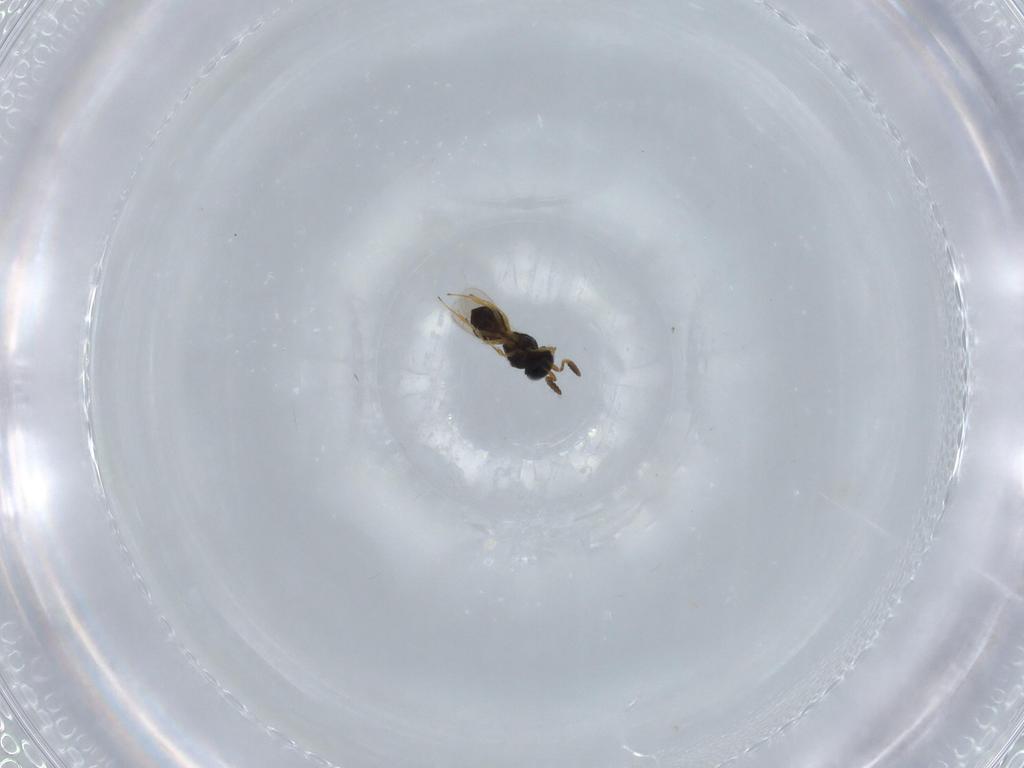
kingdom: Animalia
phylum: Arthropoda
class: Insecta
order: Hymenoptera
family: Scelionidae
